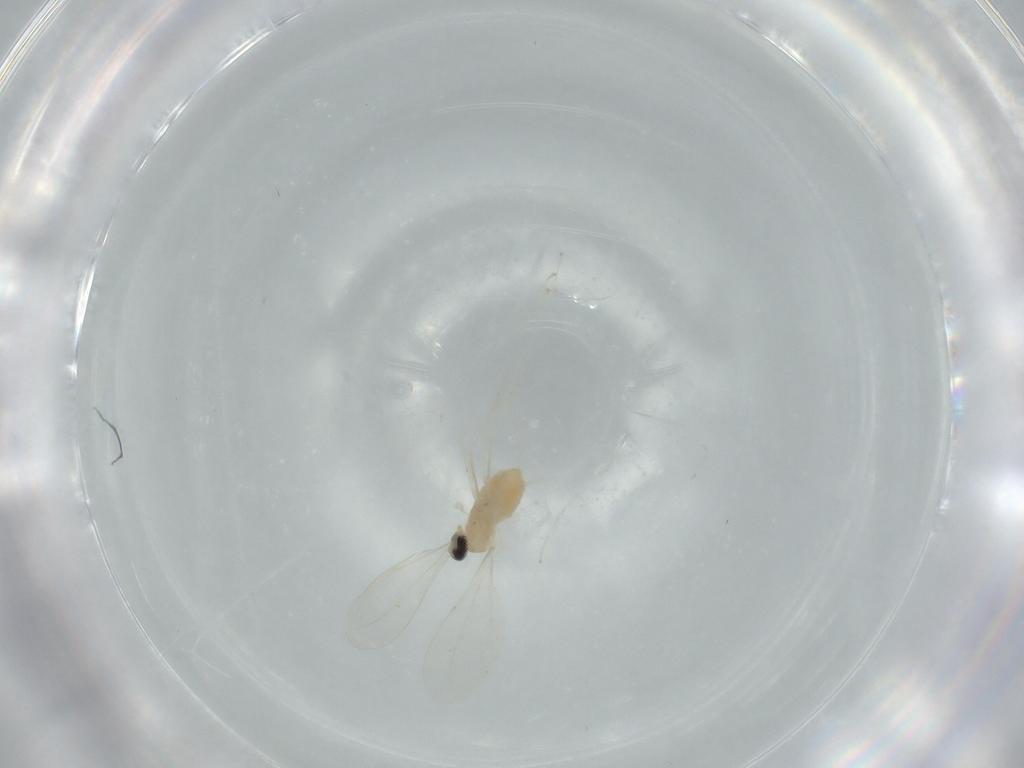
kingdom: Animalia
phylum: Arthropoda
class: Insecta
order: Diptera
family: Cecidomyiidae
